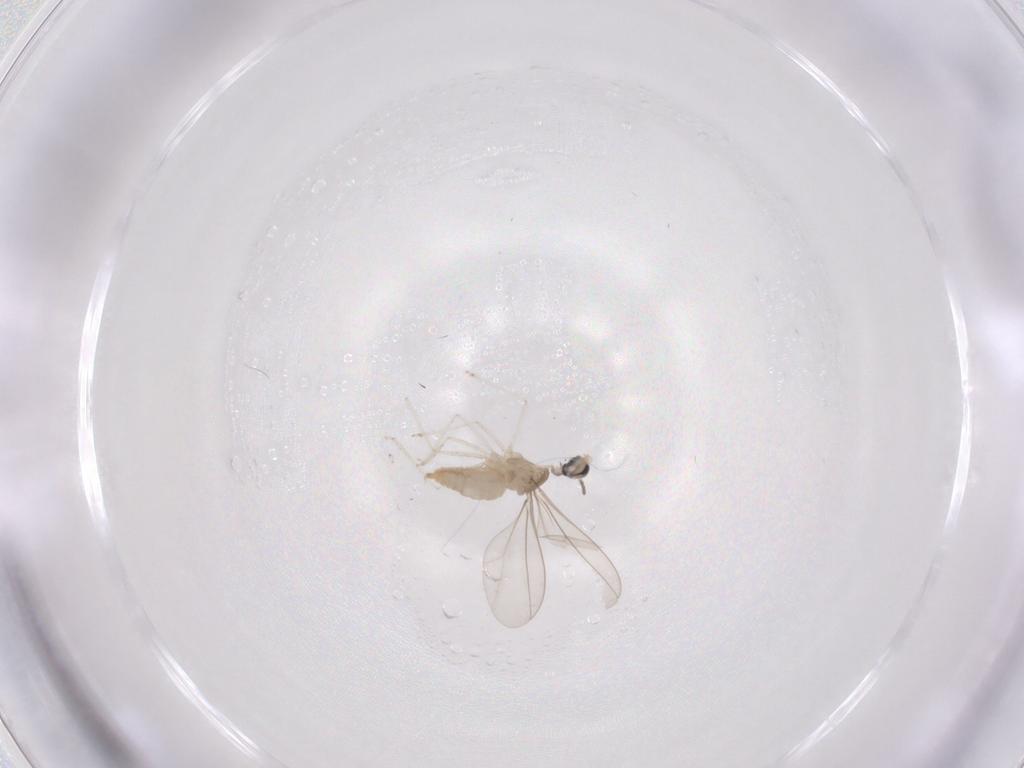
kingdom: Animalia
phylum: Arthropoda
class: Insecta
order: Diptera
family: Cecidomyiidae
